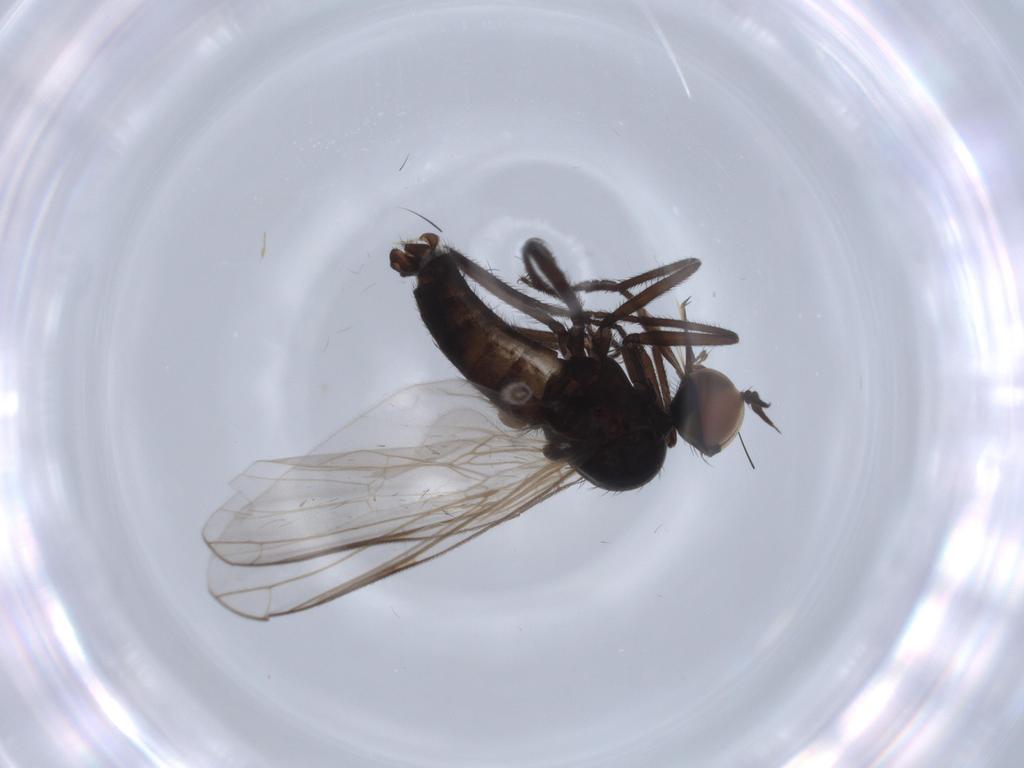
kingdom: Animalia
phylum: Arthropoda
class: Insecta
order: Diptera
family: Empididae
